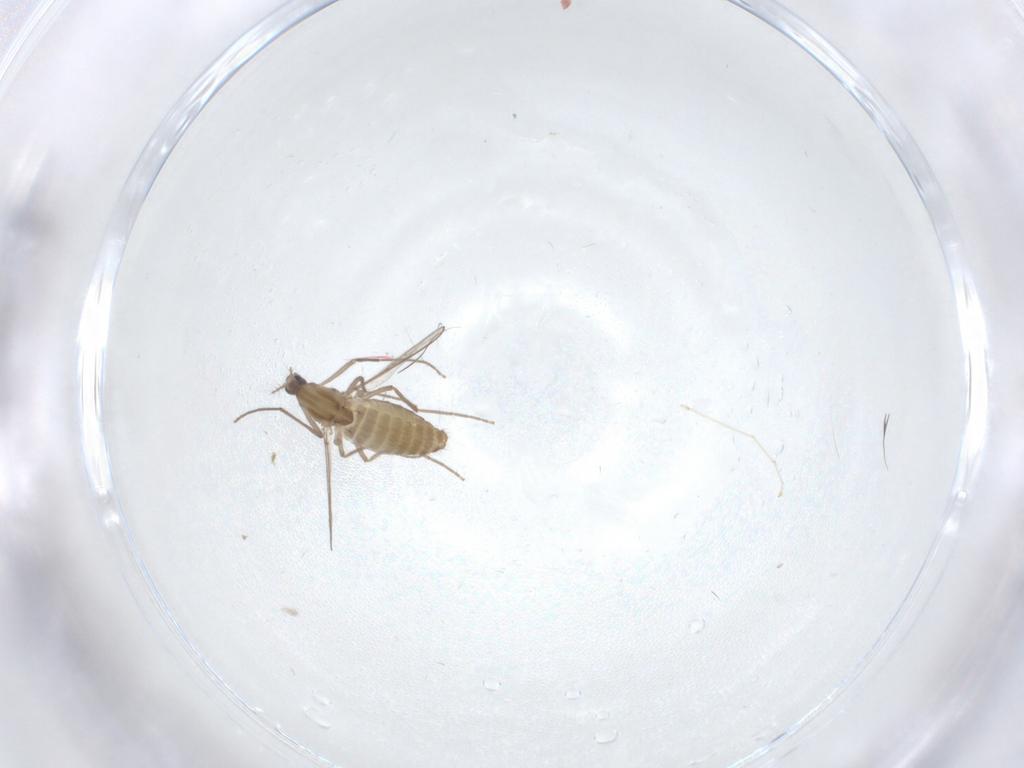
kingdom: Animalia
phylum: Arthropoda
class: Insecta
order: Diptera
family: Chironomidae
